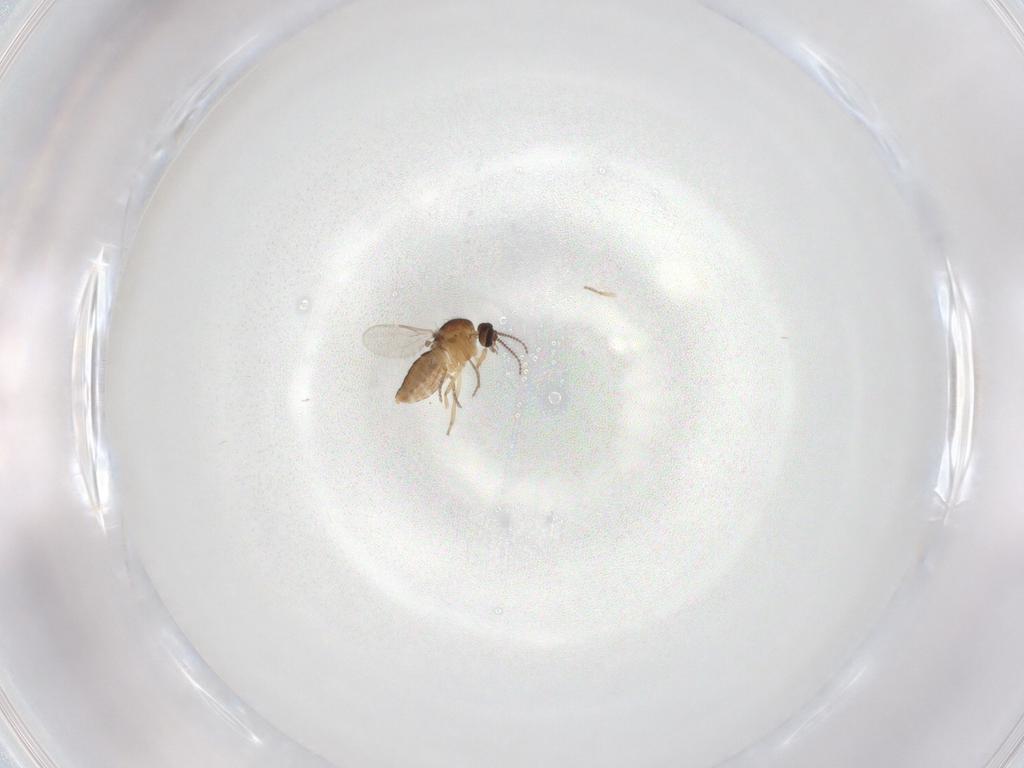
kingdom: Animalia
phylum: Arthropoda
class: Insecta
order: Diptera
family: Ceratopogonidae
